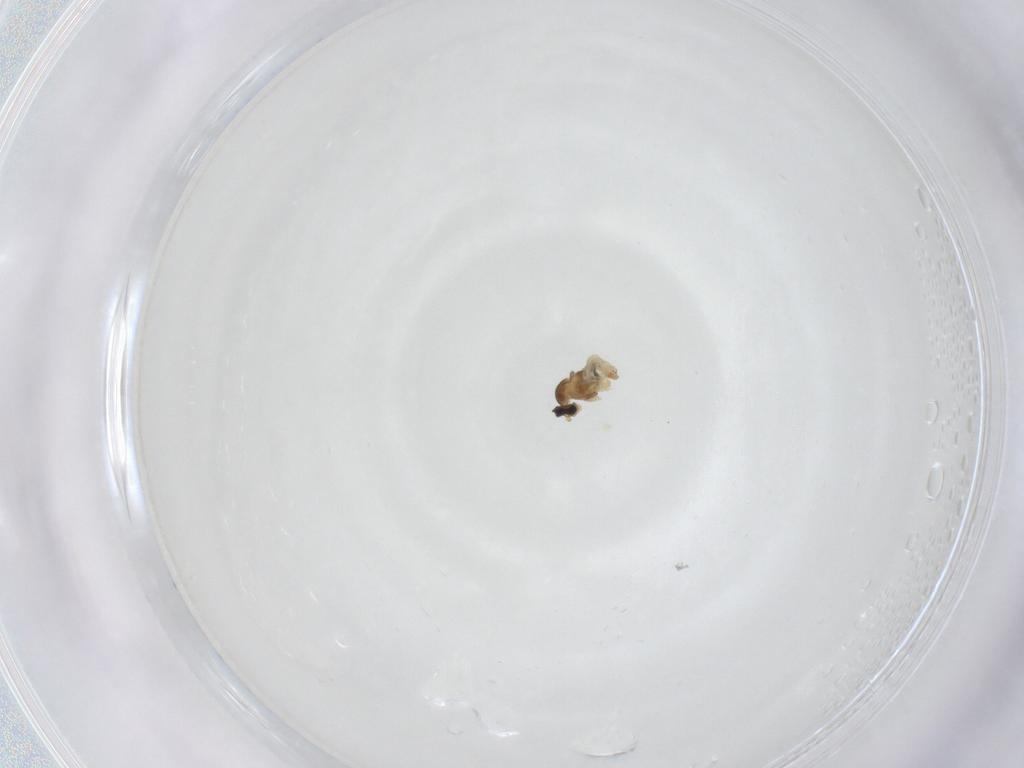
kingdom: Animalia
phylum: Arthropoda
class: Insecta
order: Diptera
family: Cecidomyiidae
